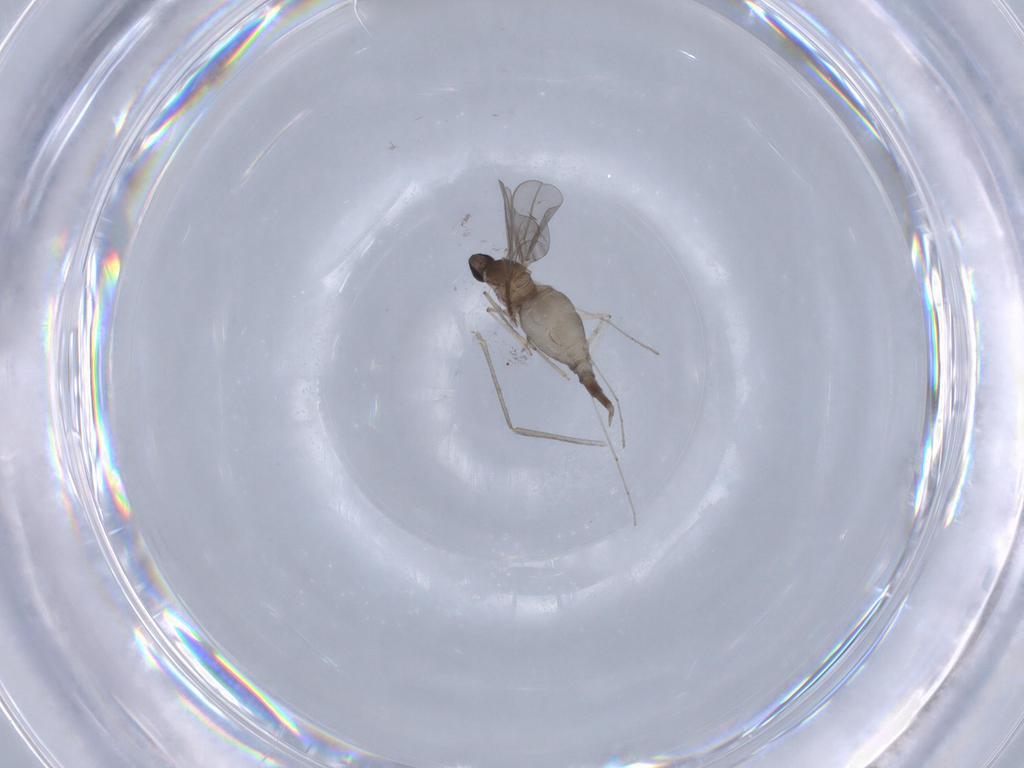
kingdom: Animalia
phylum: Arthropoda
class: Insecta
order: Diptera
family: Cecidomyiidae
